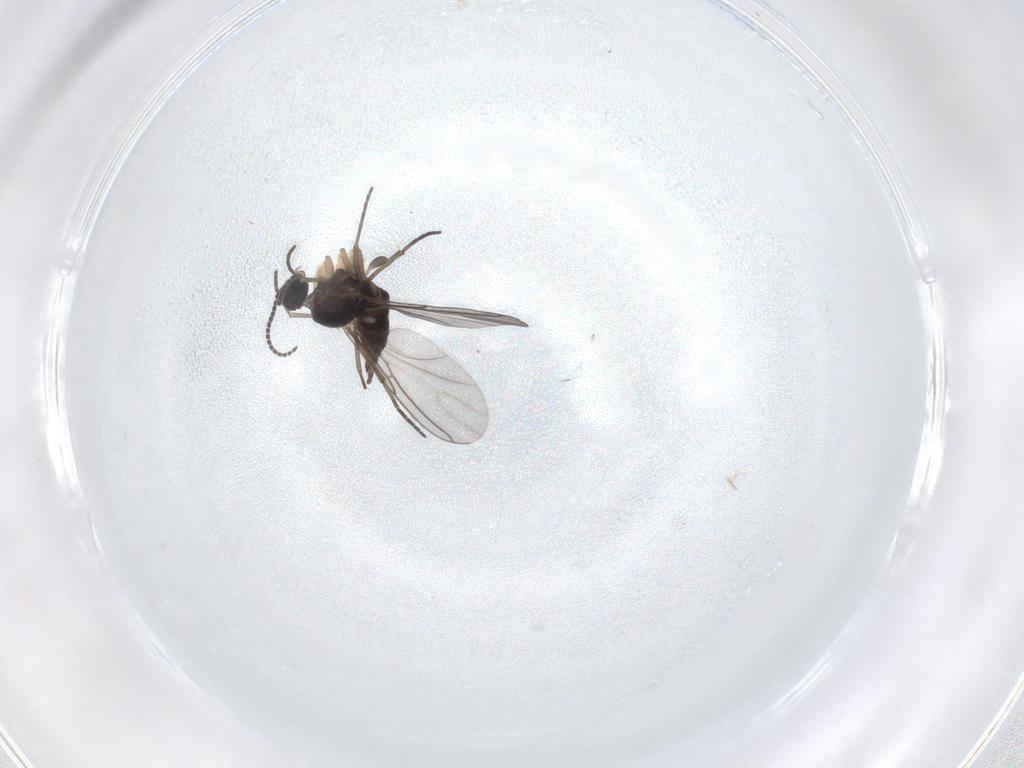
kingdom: Animalia
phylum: Arthropoda
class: Insecta
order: Diptera
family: Sciaridae
